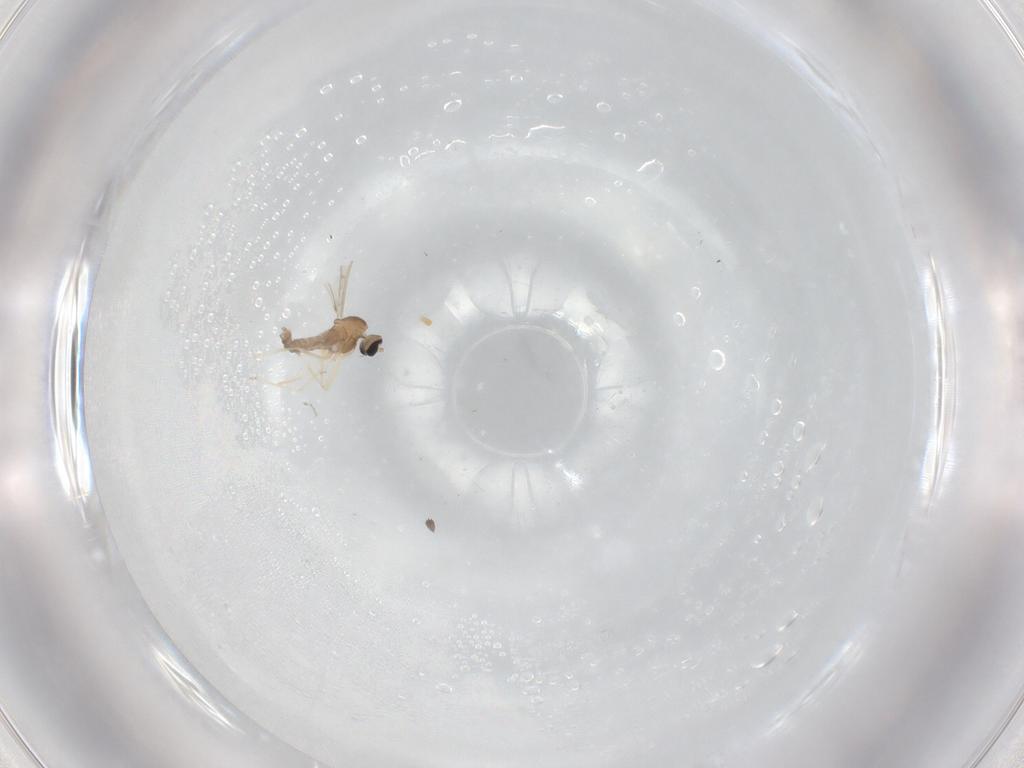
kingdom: Animalia
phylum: Arthropoda
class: Insecta
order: Diptera
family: Cecidomyiidae
